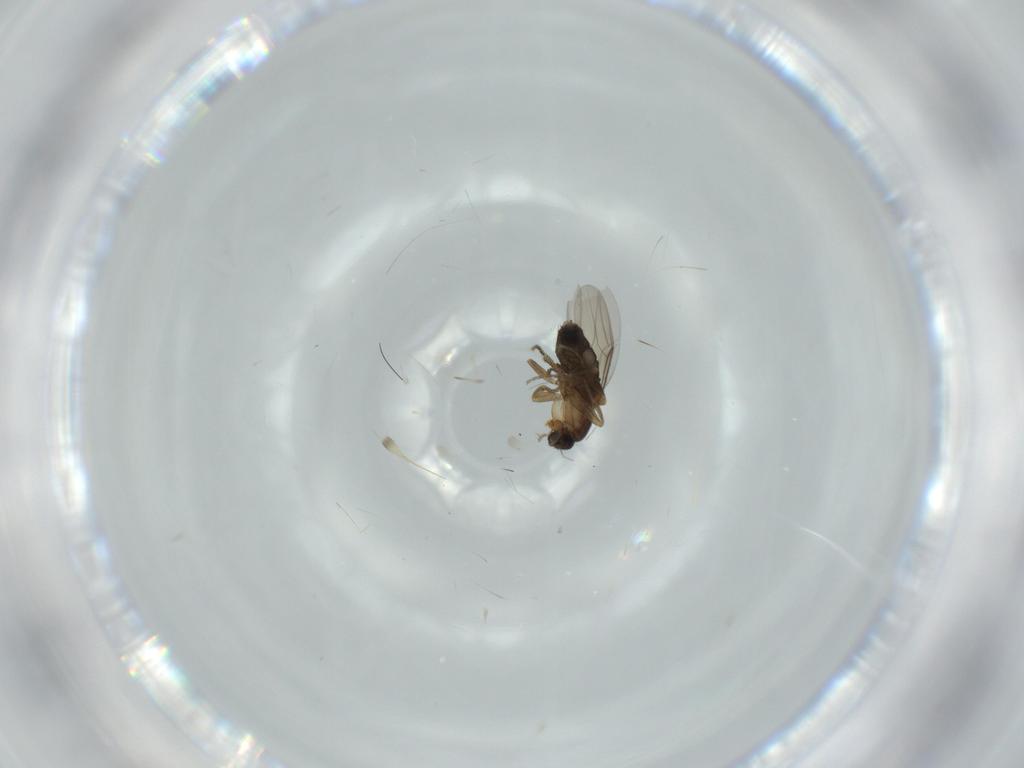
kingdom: Animalia
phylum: Arthropoda
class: Insecta
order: Diptera
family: Phoridae
